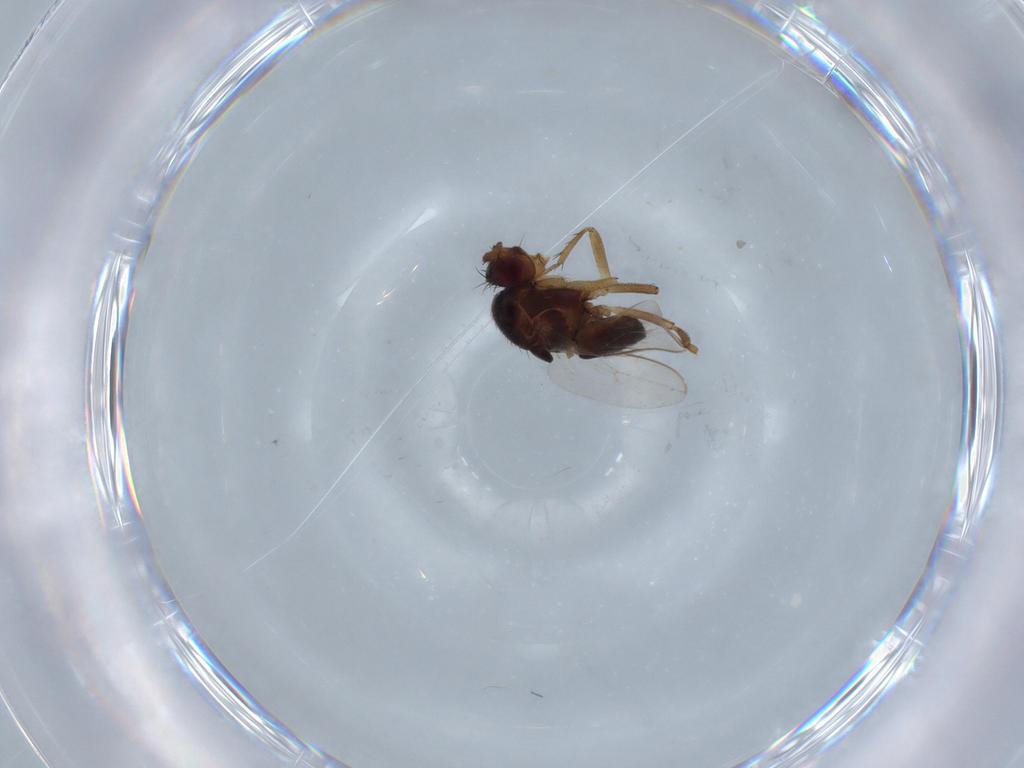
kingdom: Animalia
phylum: Arthropoda
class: Insecta
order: Diptera
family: Sphaeroceridae
